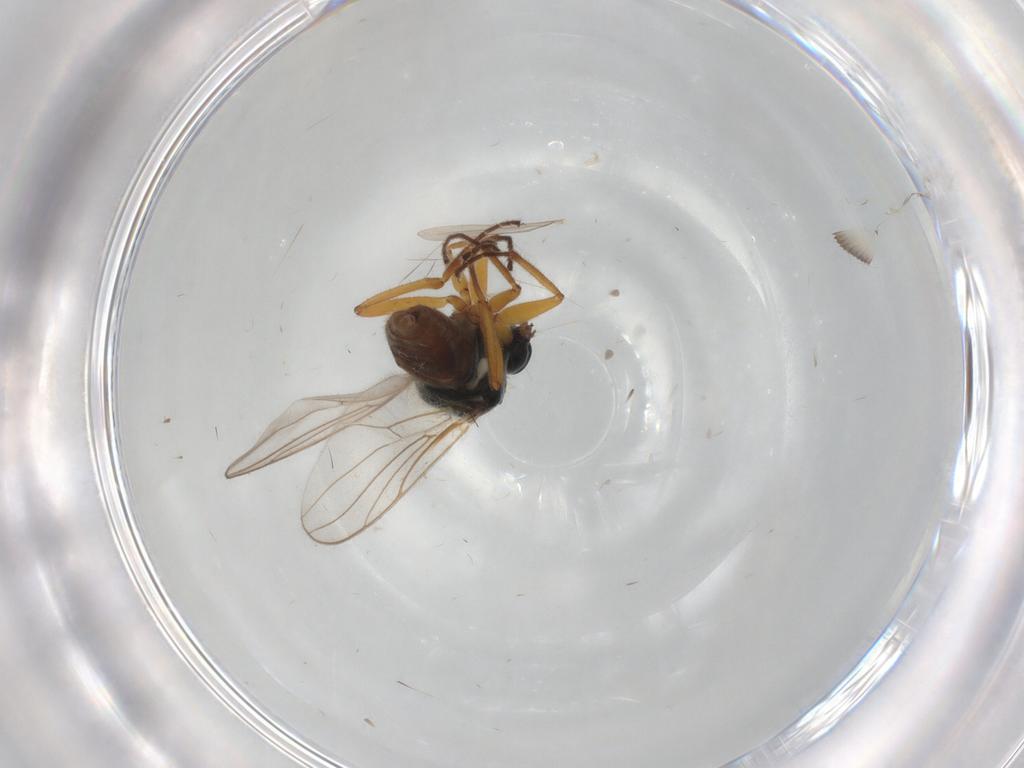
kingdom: Animalia
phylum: Arthropoda
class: Insecta
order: Diptera
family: Hybotidae
